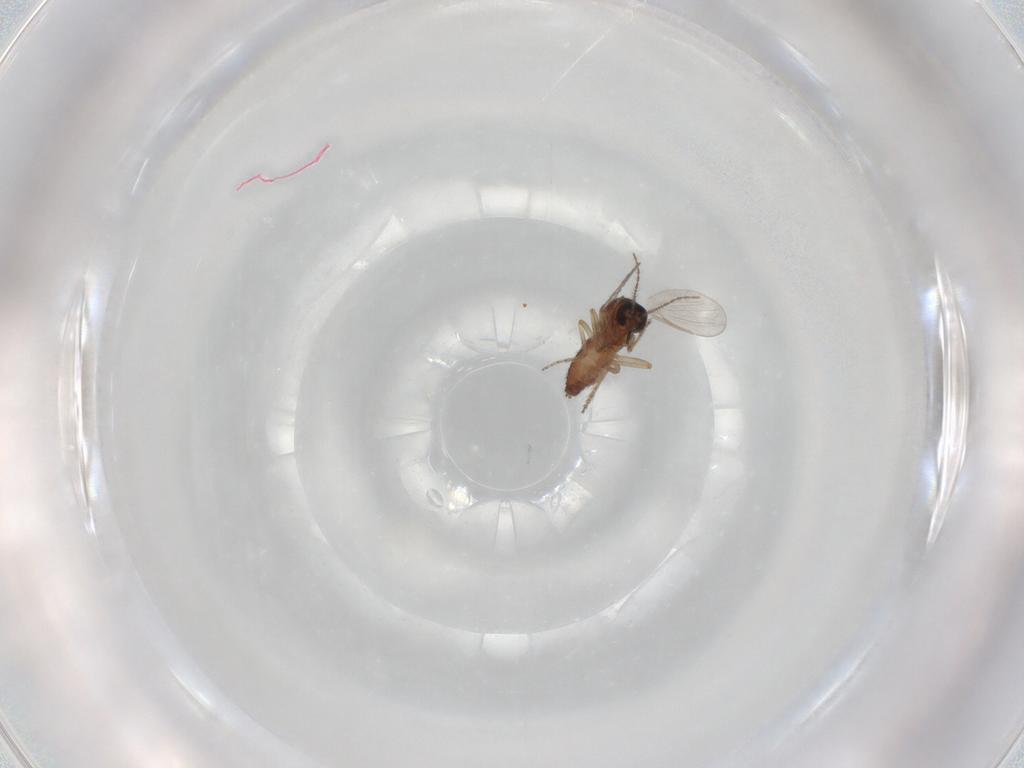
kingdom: Animalia
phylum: Arthropoda
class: Insecta
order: Diptera
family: Ceratopogonidae
